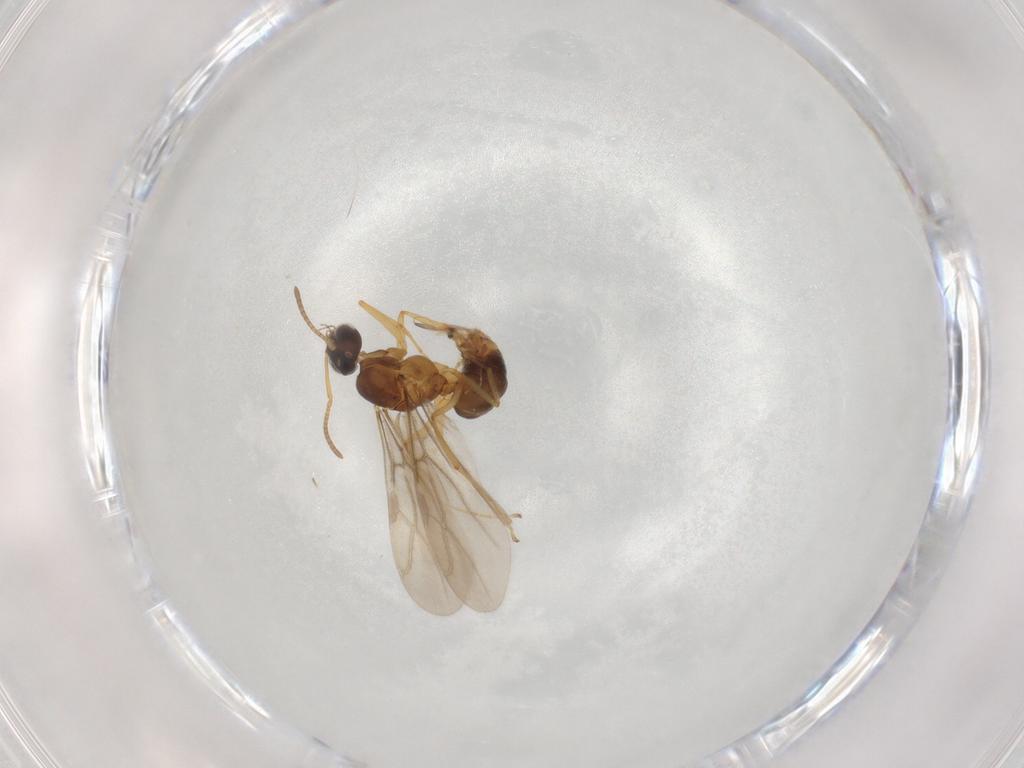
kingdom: Animalia
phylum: Arthropoda
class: Insecta
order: Hymenoptera
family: Formicidae
